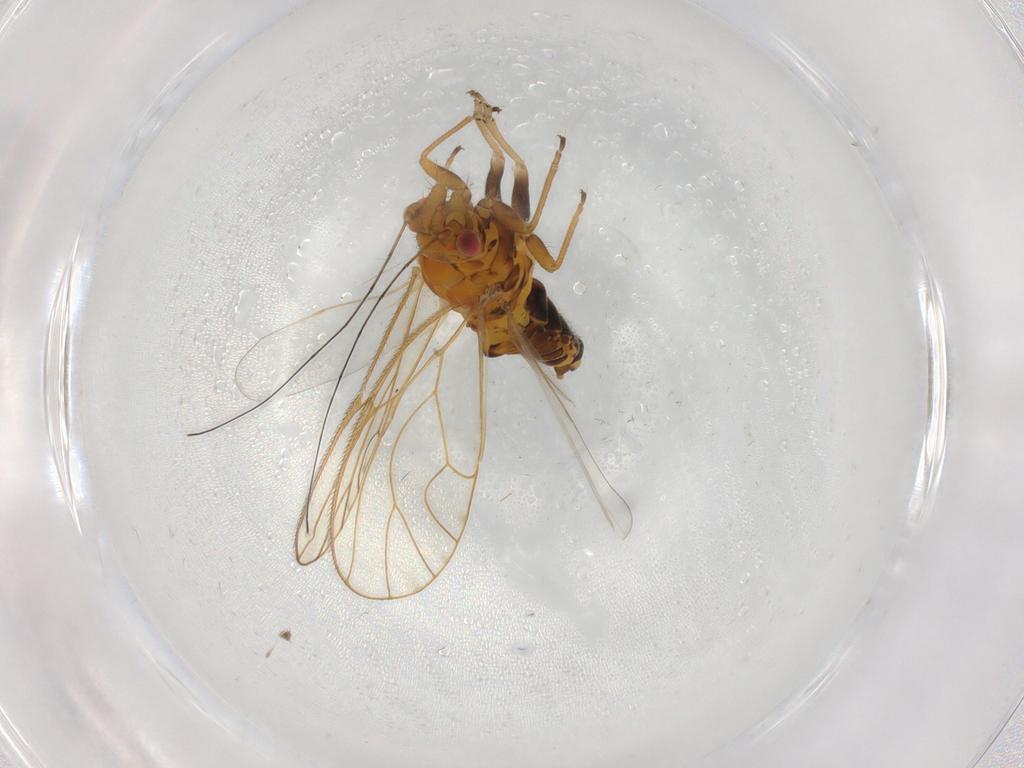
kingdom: Animalia
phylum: Arthropoda
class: Insecta
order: Hemiptera
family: Psyllidae
